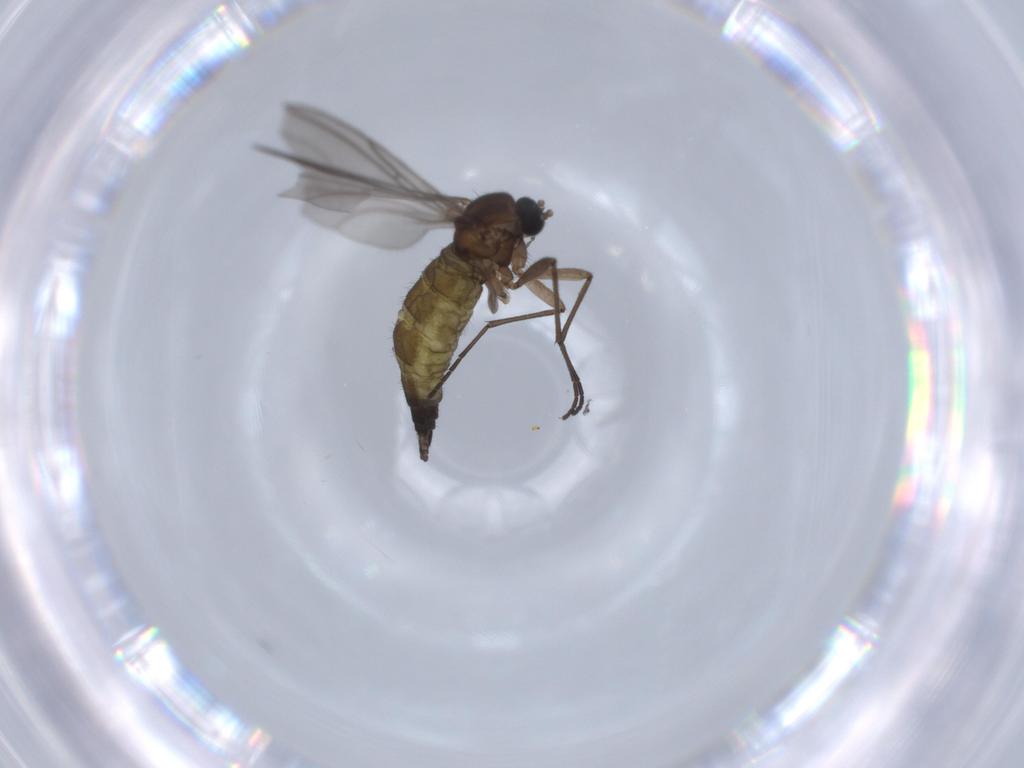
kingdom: Animalia
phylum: Arthropoda
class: Insecta
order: Diptera
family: Sciaridae
